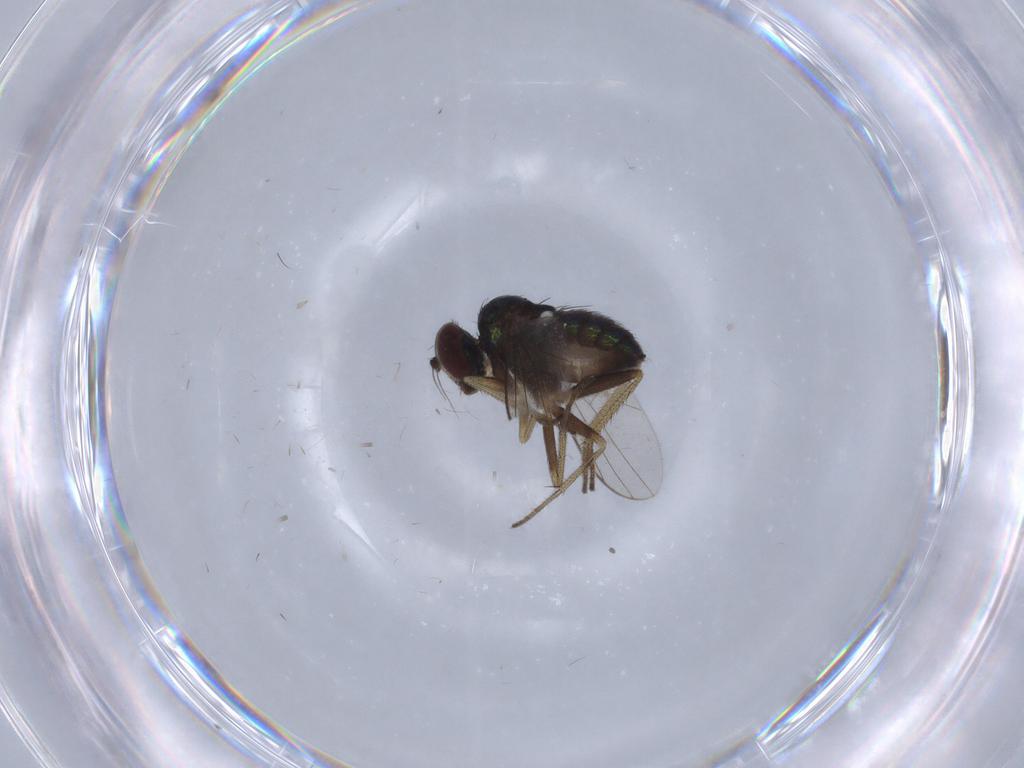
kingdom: Animalia
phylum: Arthropoda
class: Insecta
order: Diptera
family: Sciaridae
